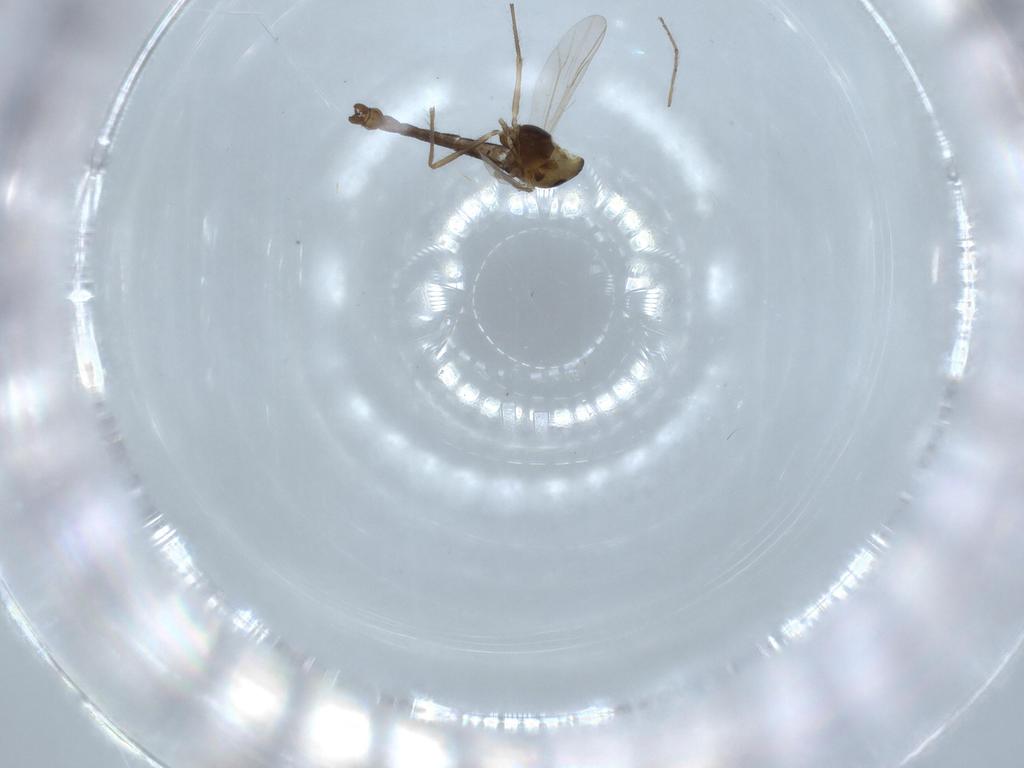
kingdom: Animalia
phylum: Arthropoda
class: Insecta
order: Diptera
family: Chironomidae
